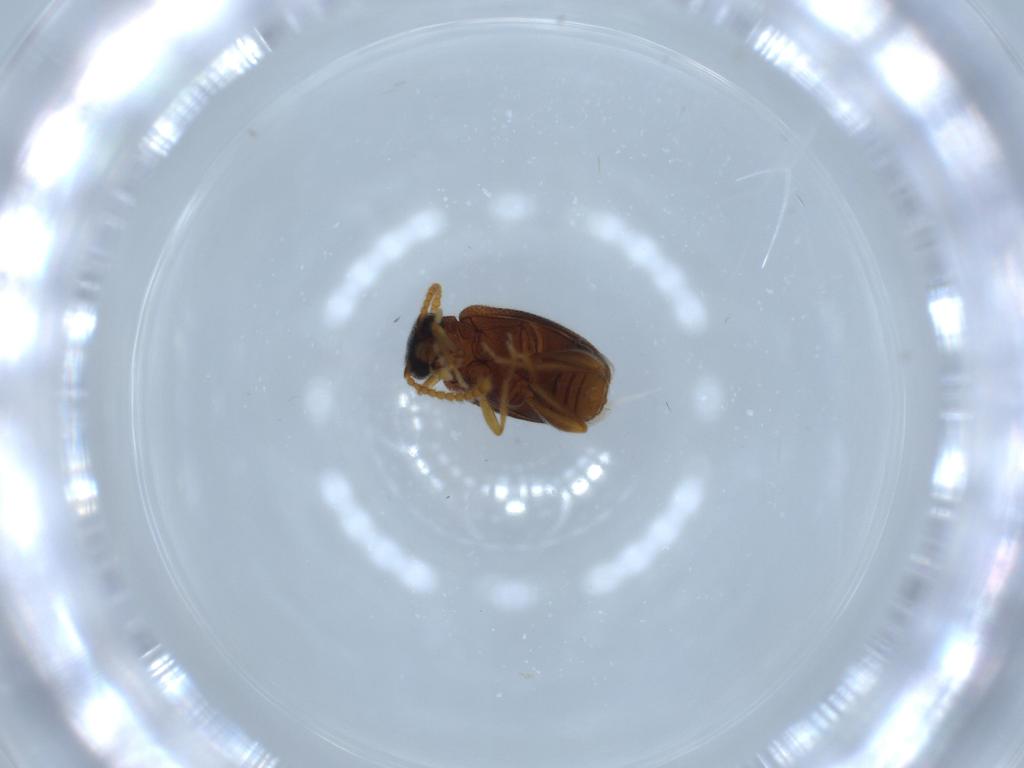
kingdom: Animalia
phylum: Arthropoda
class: Insecta
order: Coleoptera
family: Aderidae
